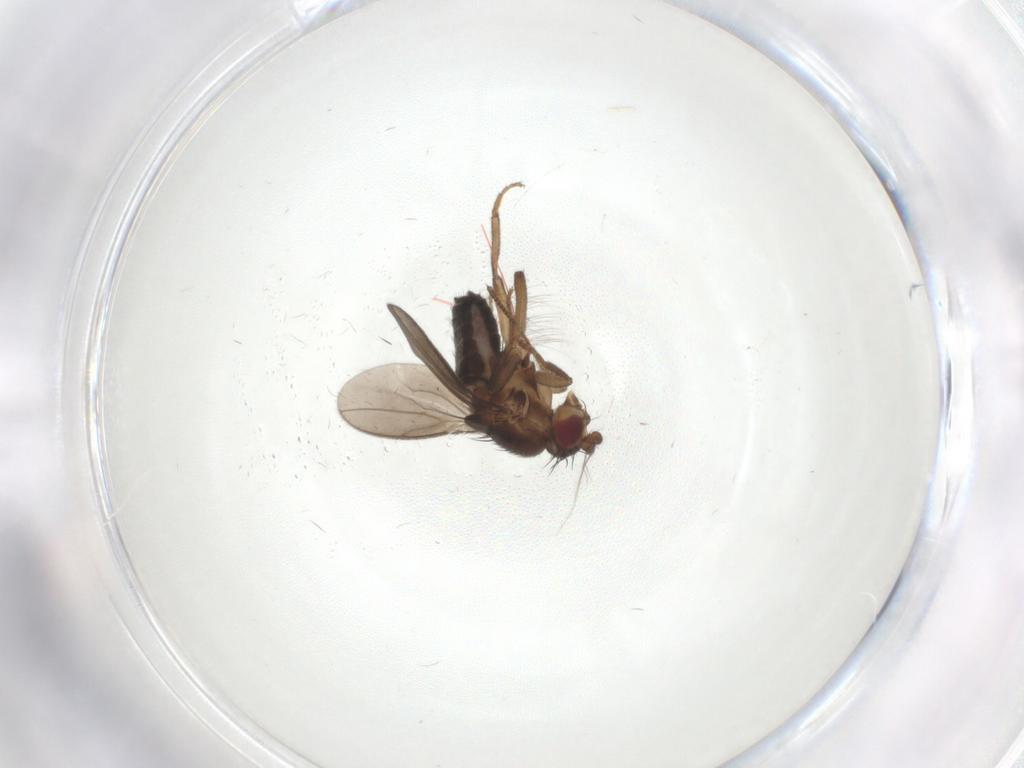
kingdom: Animalia
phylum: Arthropoda
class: Insecta
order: Diptera
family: Sphaeroceridae
